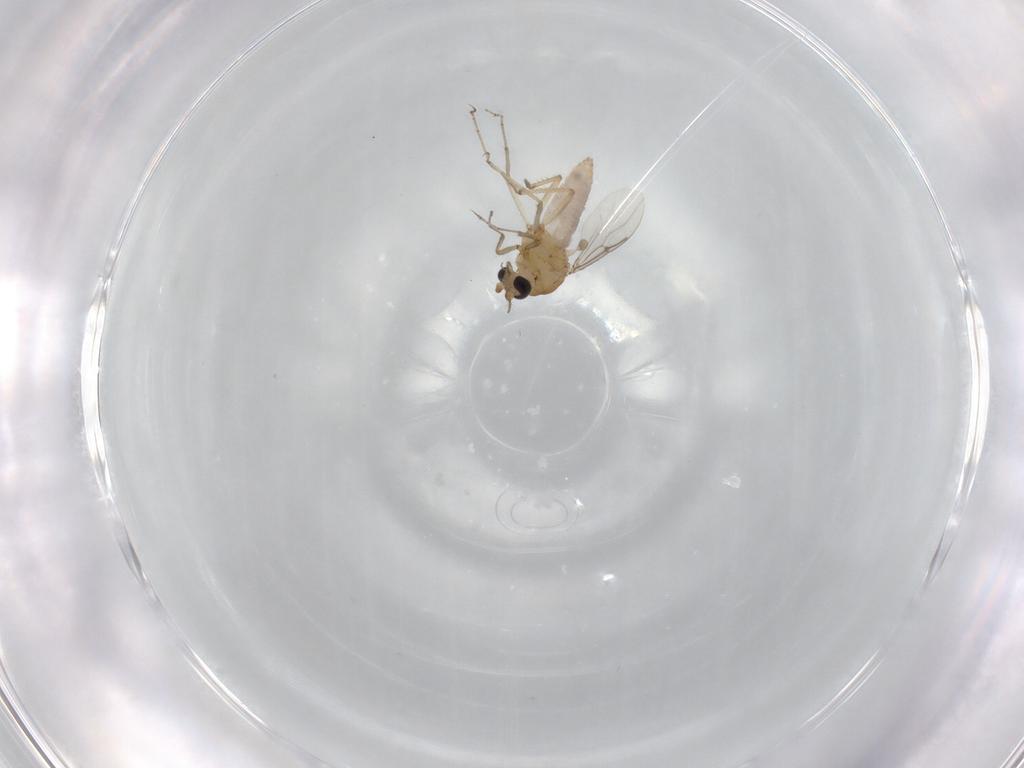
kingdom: Animalia
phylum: Arthropoda
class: Insecta
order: Diptera
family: Ceratopogonidae
